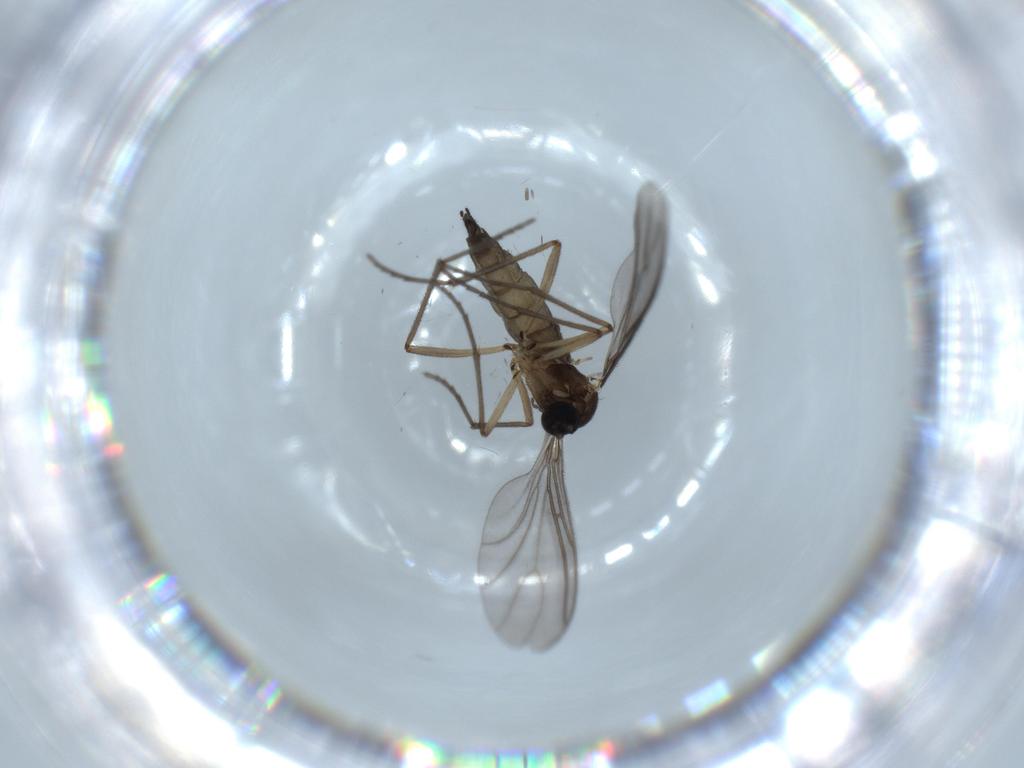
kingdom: Animalia
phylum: Arthropoda
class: Insecta
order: Diptera
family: Sciaridae
